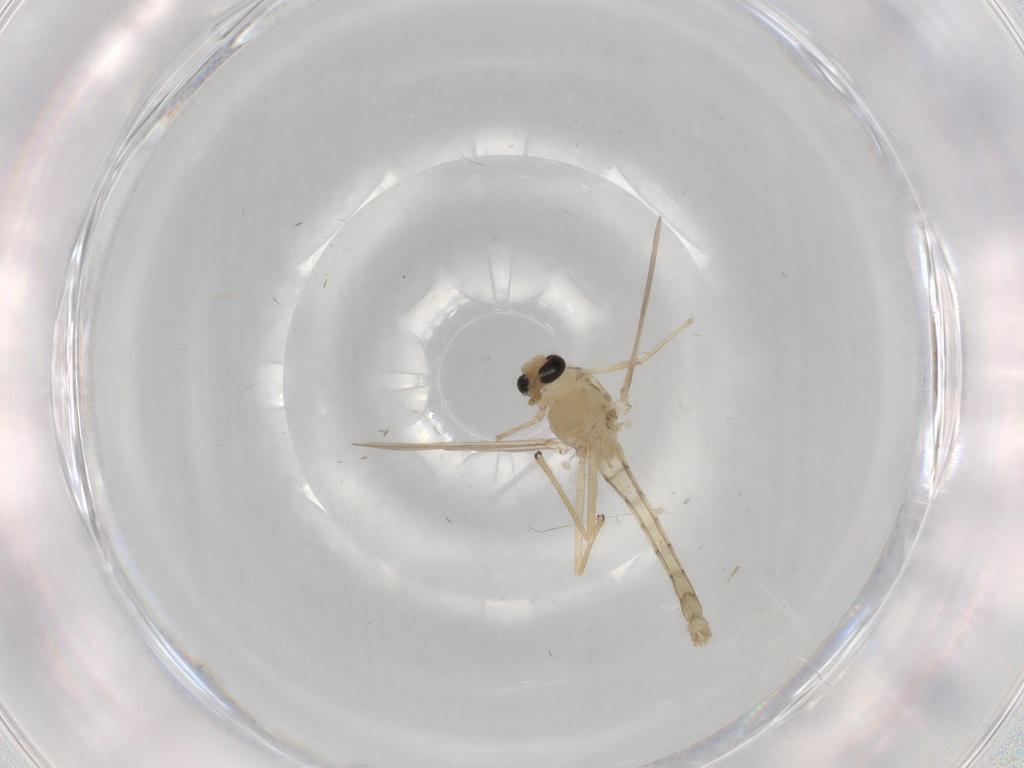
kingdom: Animalia
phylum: Arthropoda
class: Insecta
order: Diptera
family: Chironomidae
